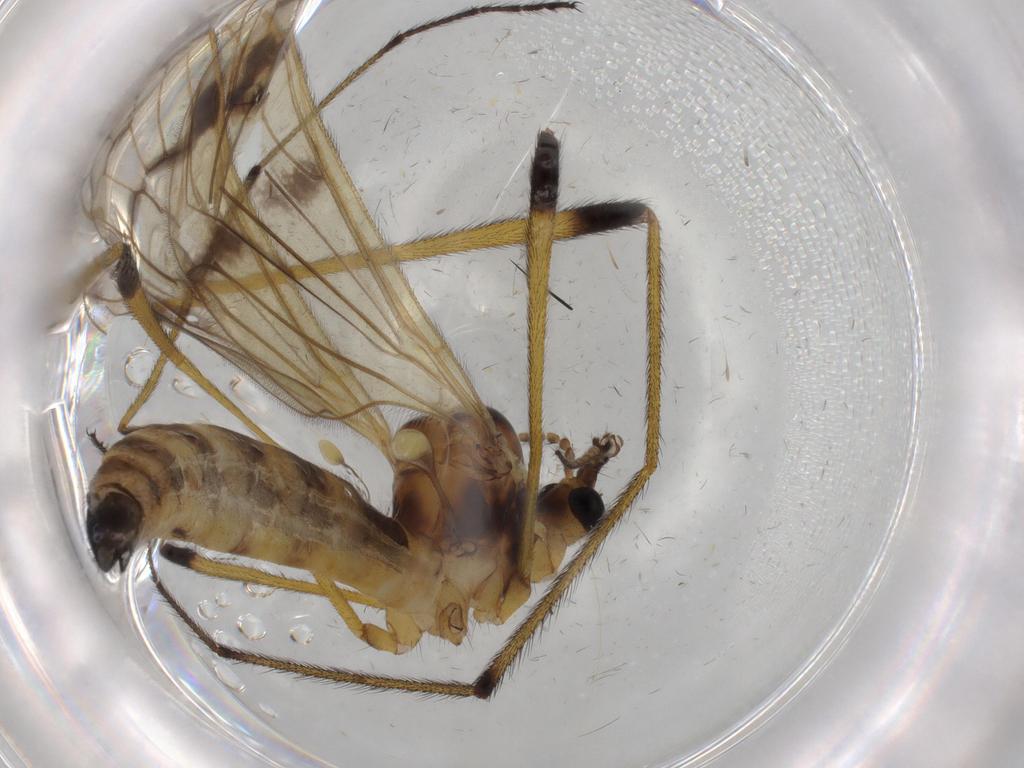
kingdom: Animalia
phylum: Arthropoda
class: Insecta
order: Diptera
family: Limoniidae
